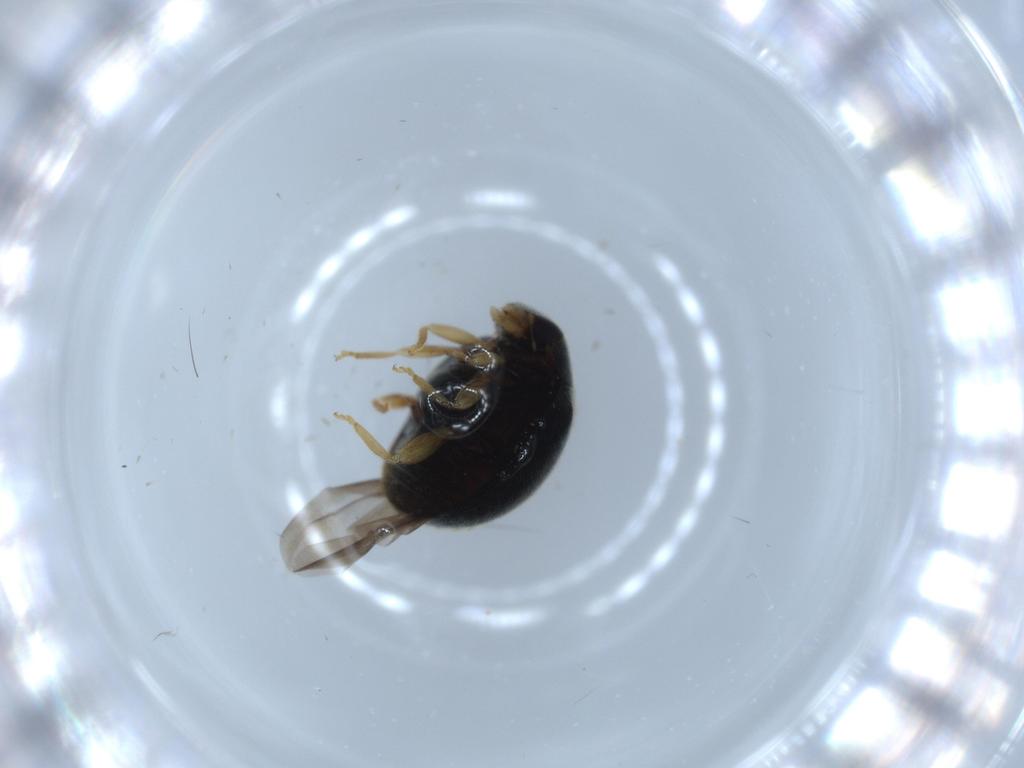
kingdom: Animalia
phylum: Arthropoda
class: Insecta
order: Coleoptera
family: Coccinellidae
